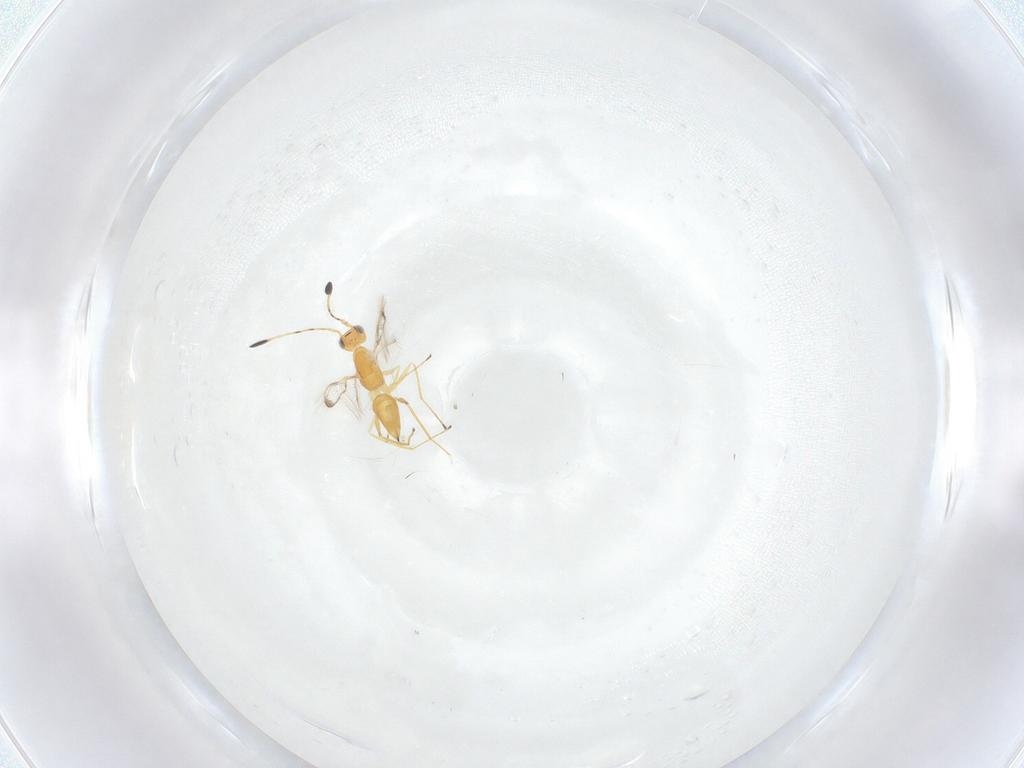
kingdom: Animalia
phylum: Arthropoda
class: Insecta
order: Hymenoptera
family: Mymaridae
